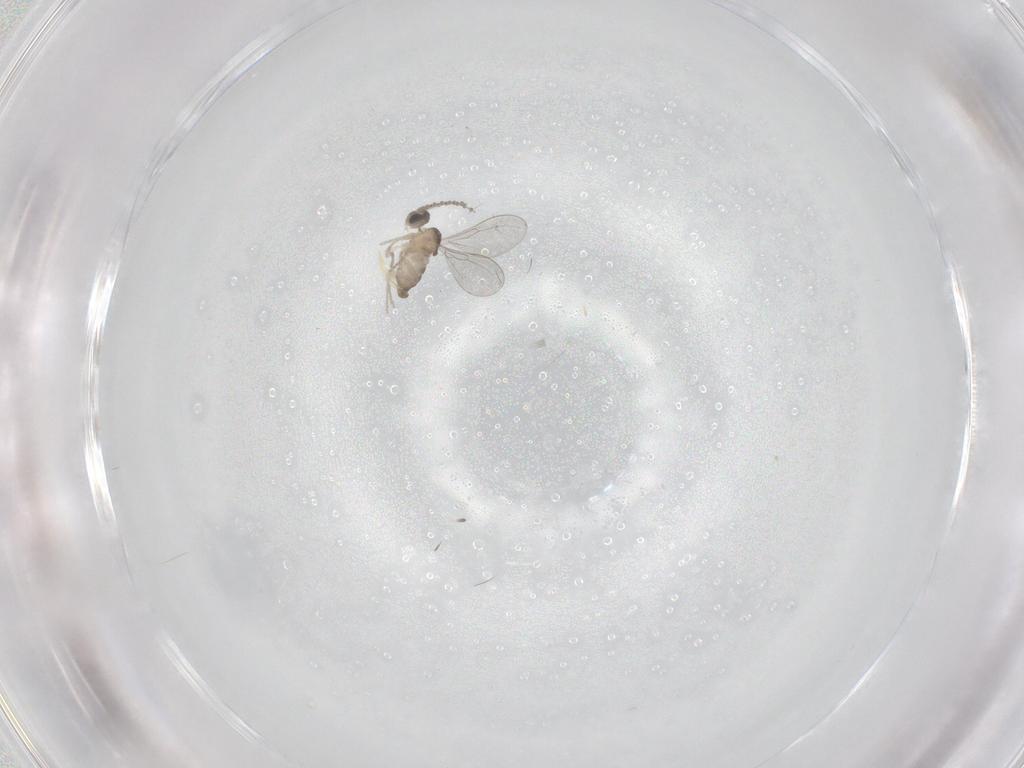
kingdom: Animalia
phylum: Arthropoda
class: Insecta
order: Diptera
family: Cecidomyiidae
